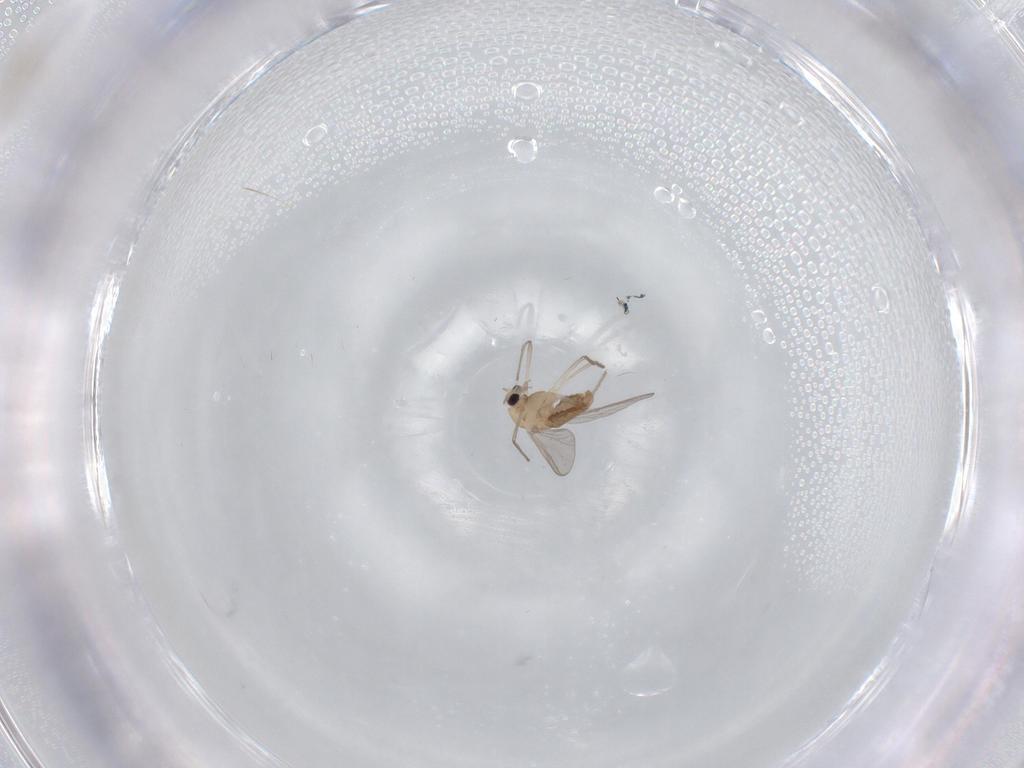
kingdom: Animalia
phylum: Arthropoda
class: Insecta
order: Diptera
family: Chironomidae
